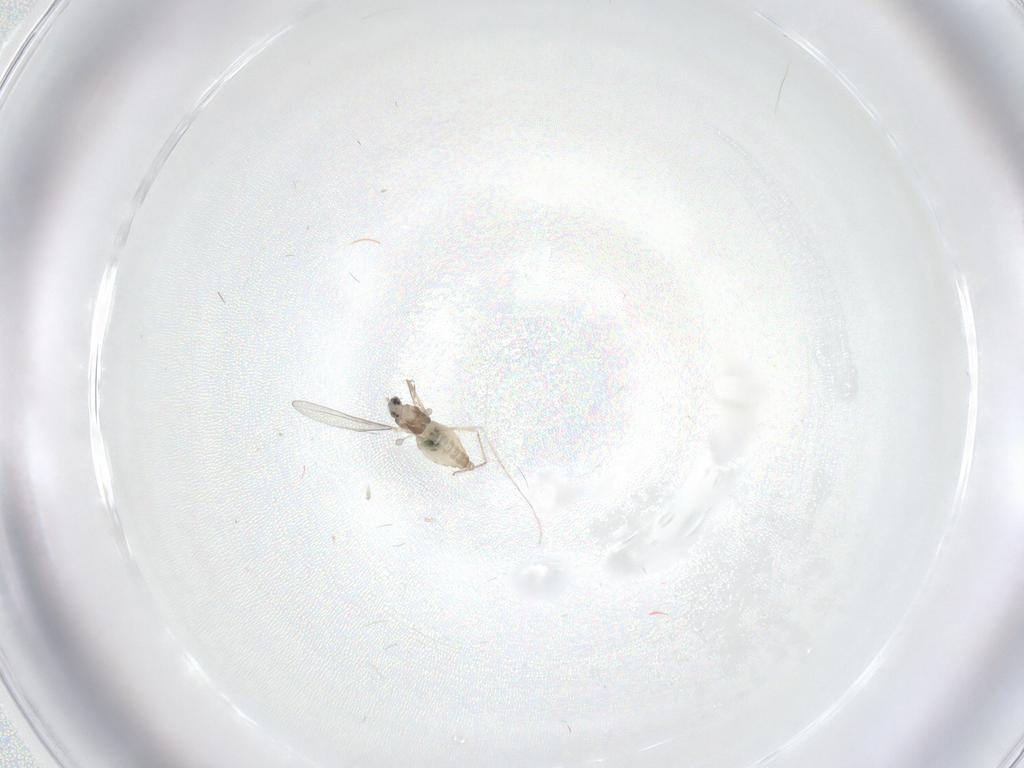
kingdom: Animalia
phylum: Arthropoda
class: Insecta
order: Diptera
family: Cecidomyiidae
